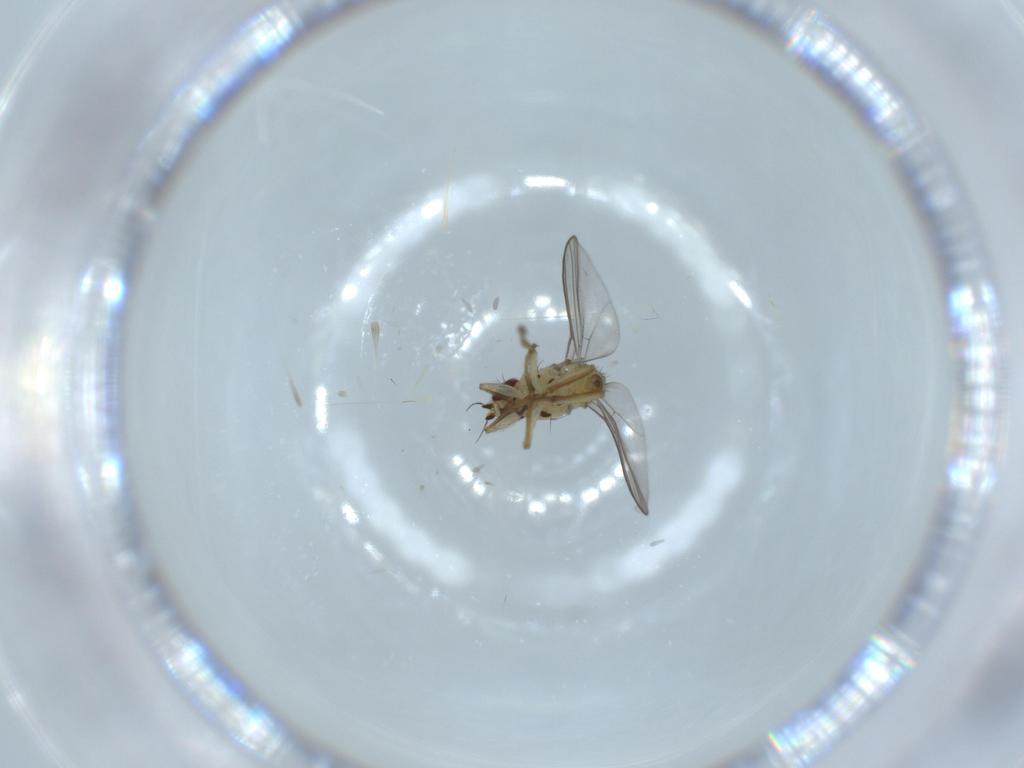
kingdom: Animalia
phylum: Arthropoda
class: Insecta
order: Diptera
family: Agromyzidae
